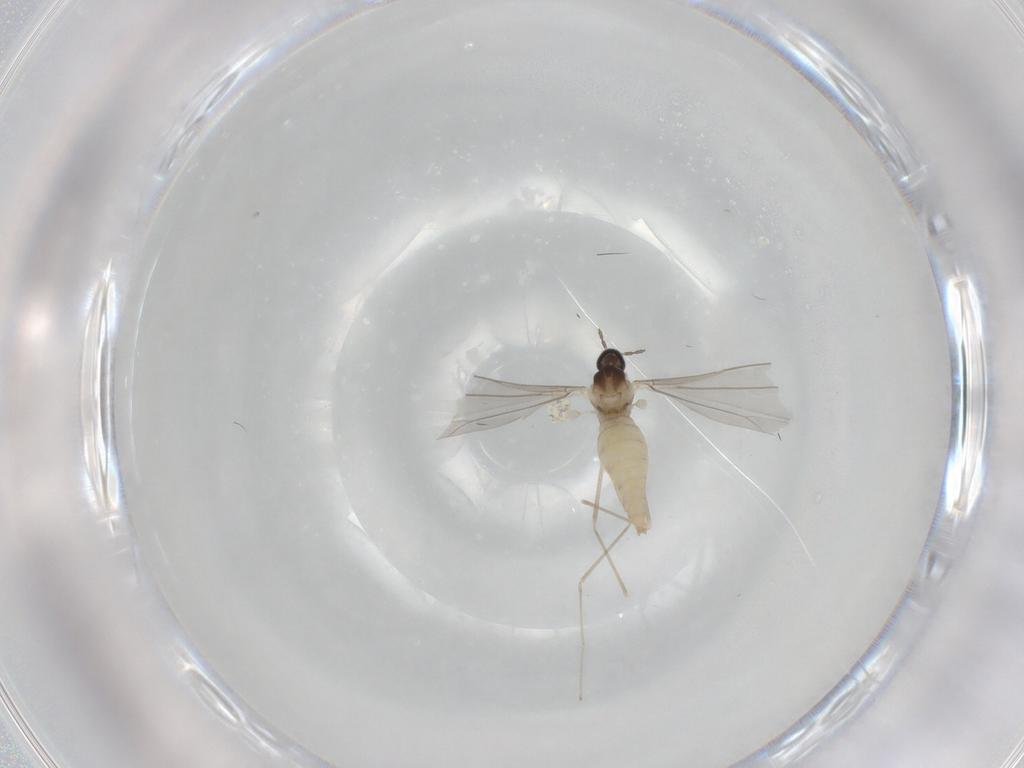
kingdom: Animalia
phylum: Arthropoda
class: Insecta
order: Diptera
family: Cecidomyiidae
